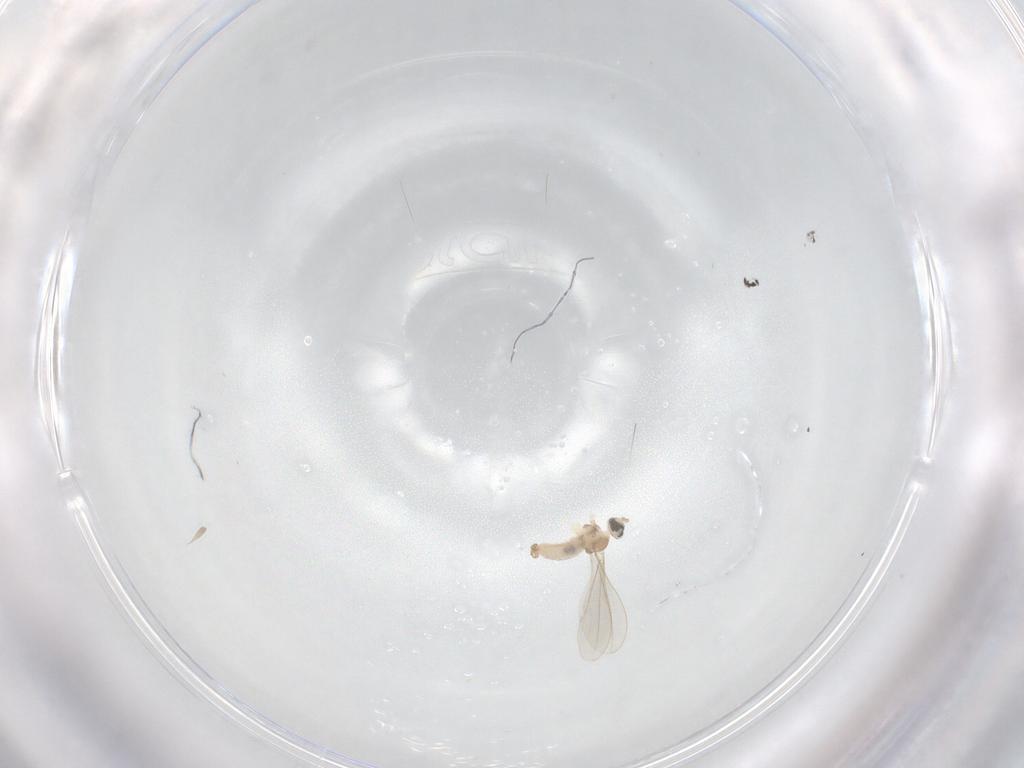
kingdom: Animalia
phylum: Arthropoda
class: Insecta
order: Diptera
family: Cecidomyiidae
